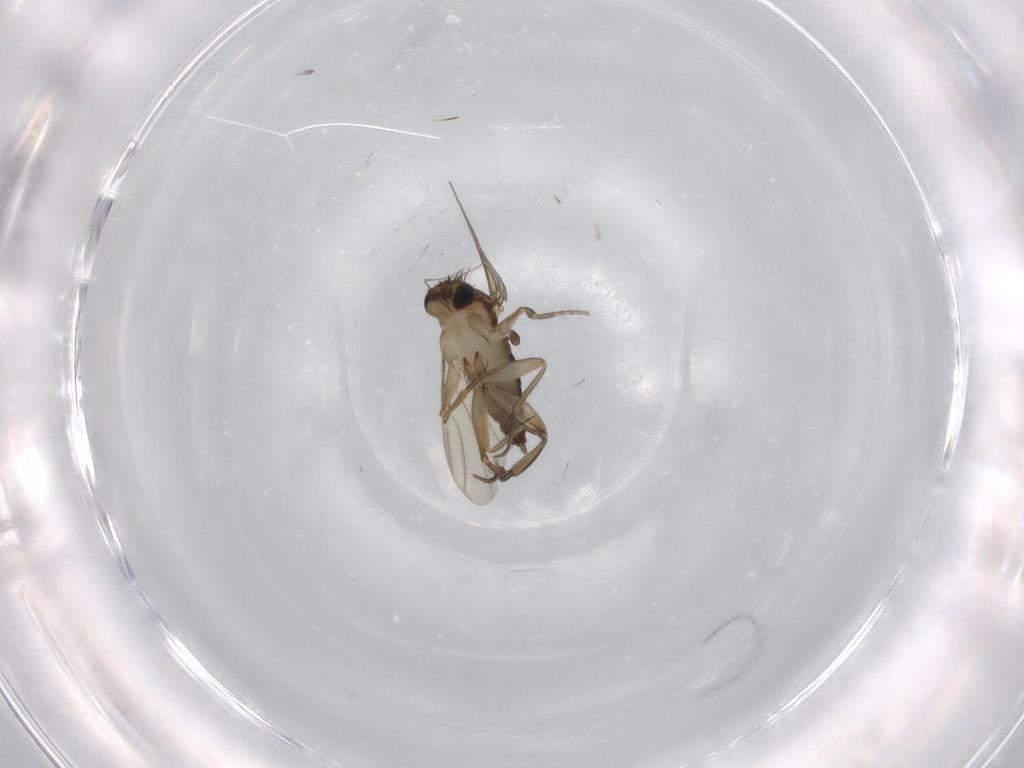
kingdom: Animalia
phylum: Arthropoda
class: Insecta
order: Diptera
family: Phoridae
